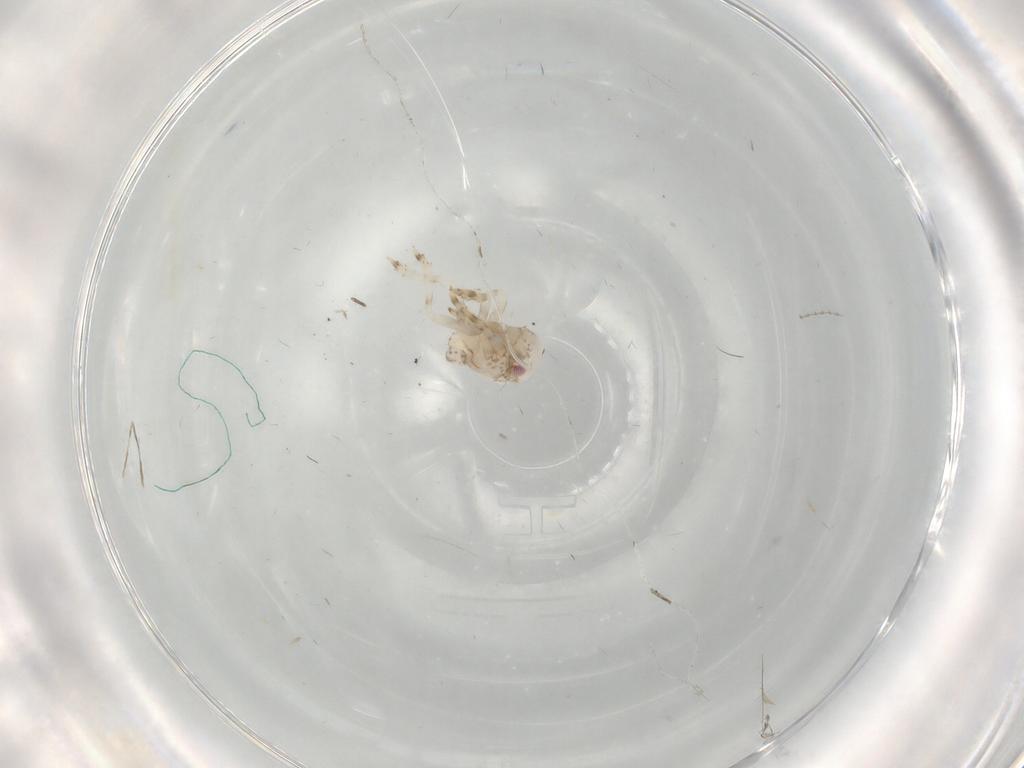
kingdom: Animalia
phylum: Arthropoda
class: Insecta
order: Hemiptera
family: Acanaloniidae
